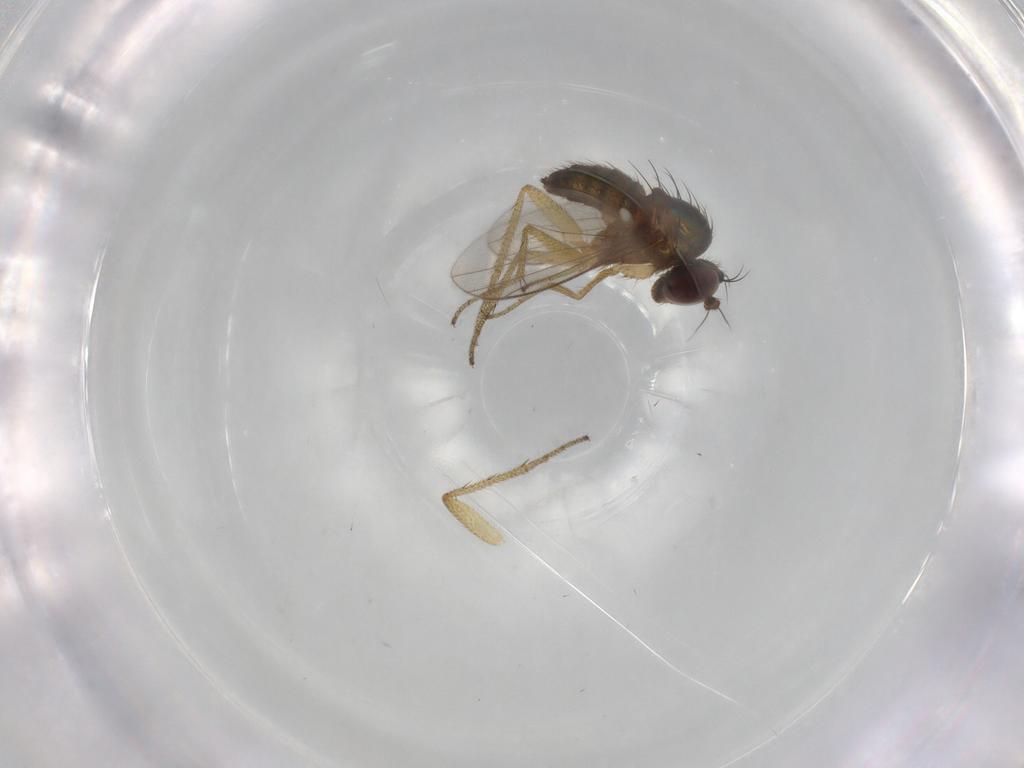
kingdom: Animalia
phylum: Arthropoda
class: Insecta
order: Diptera
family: Dolichopodidae
